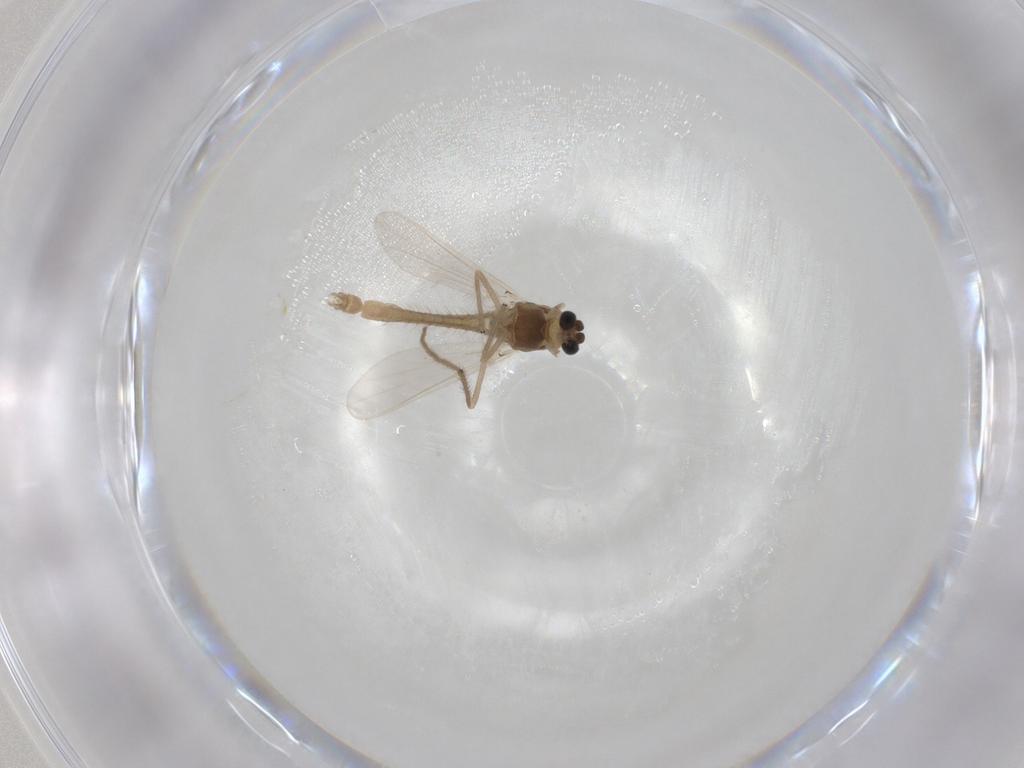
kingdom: Animalia
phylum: Arthropoda
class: Insecta
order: Diptera
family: Chironomidae
